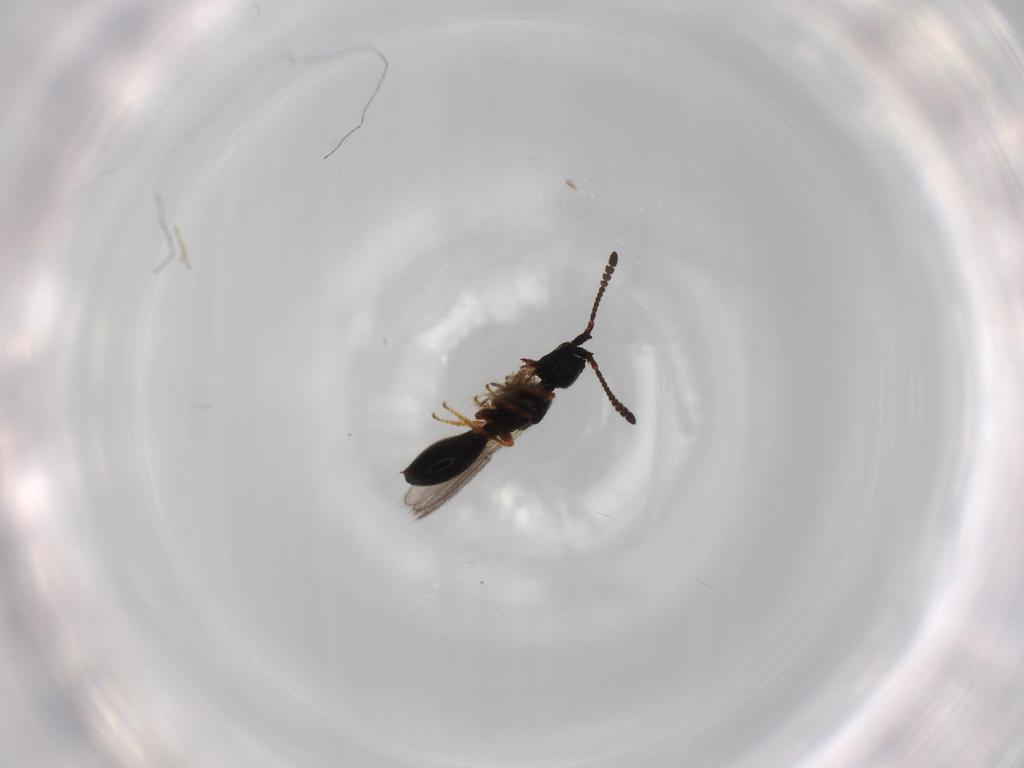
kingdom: Animalia
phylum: Arthropoda
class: Insecta
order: Hymenoptera
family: Diapriidae
